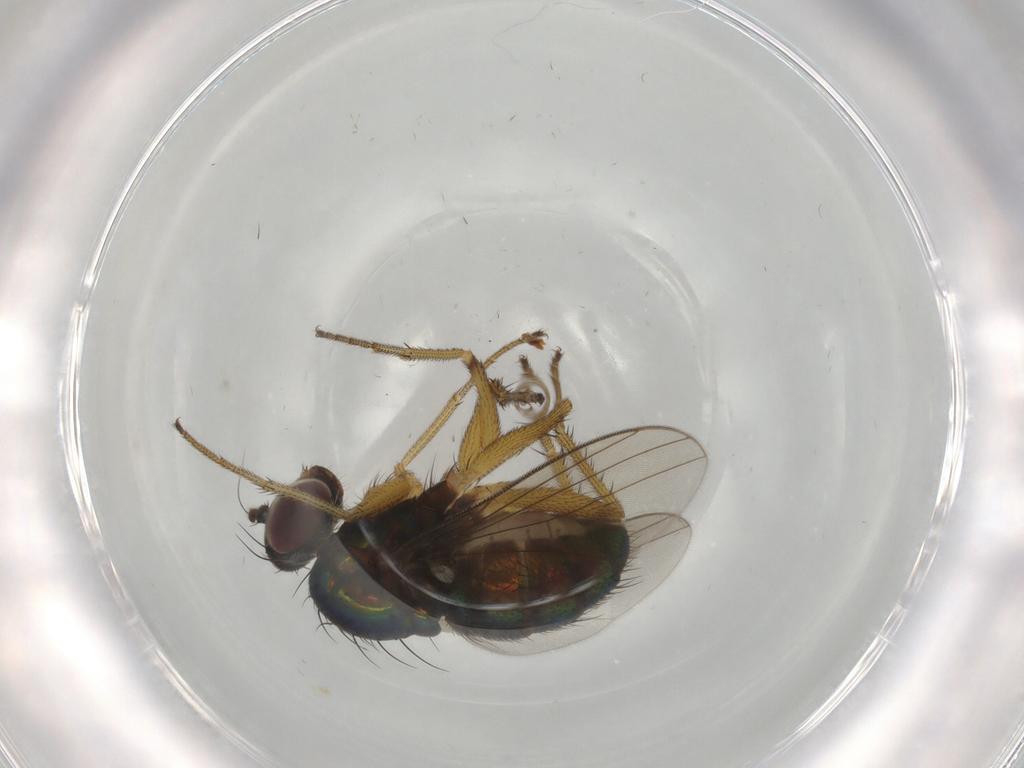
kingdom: Animalia
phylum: Arthropoda
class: Insecta
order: Diptera
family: Dolichopodidae
